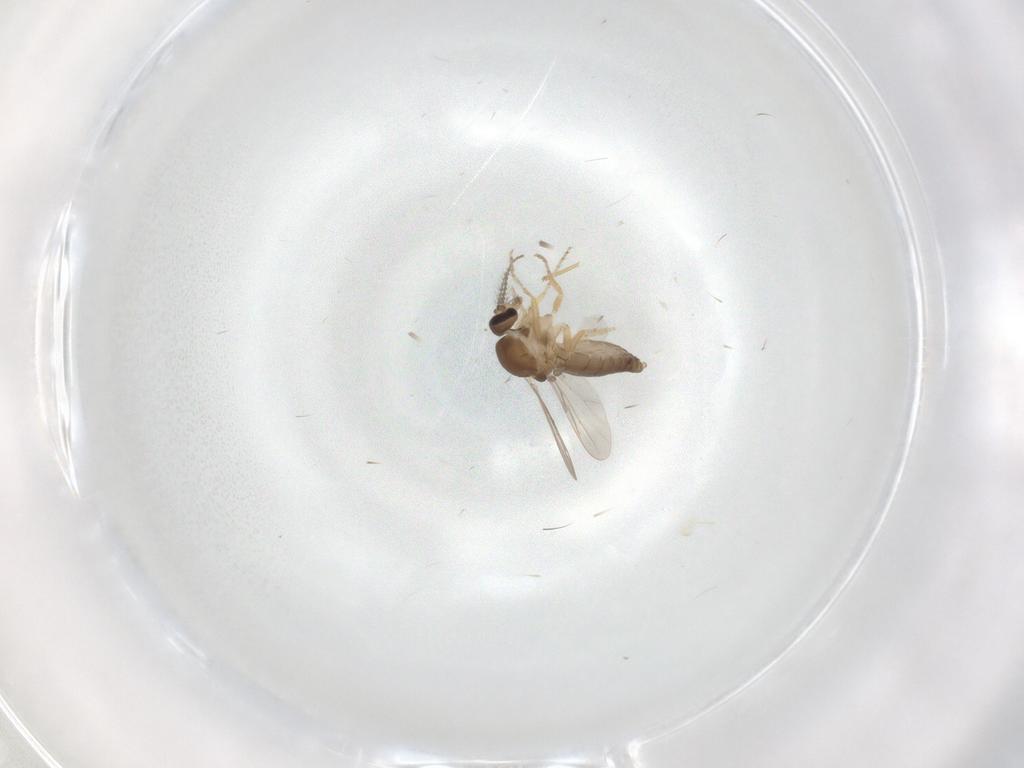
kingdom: Animalia
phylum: Arthropoda
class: Insecta
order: Diptera
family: Ceratopogonidae
